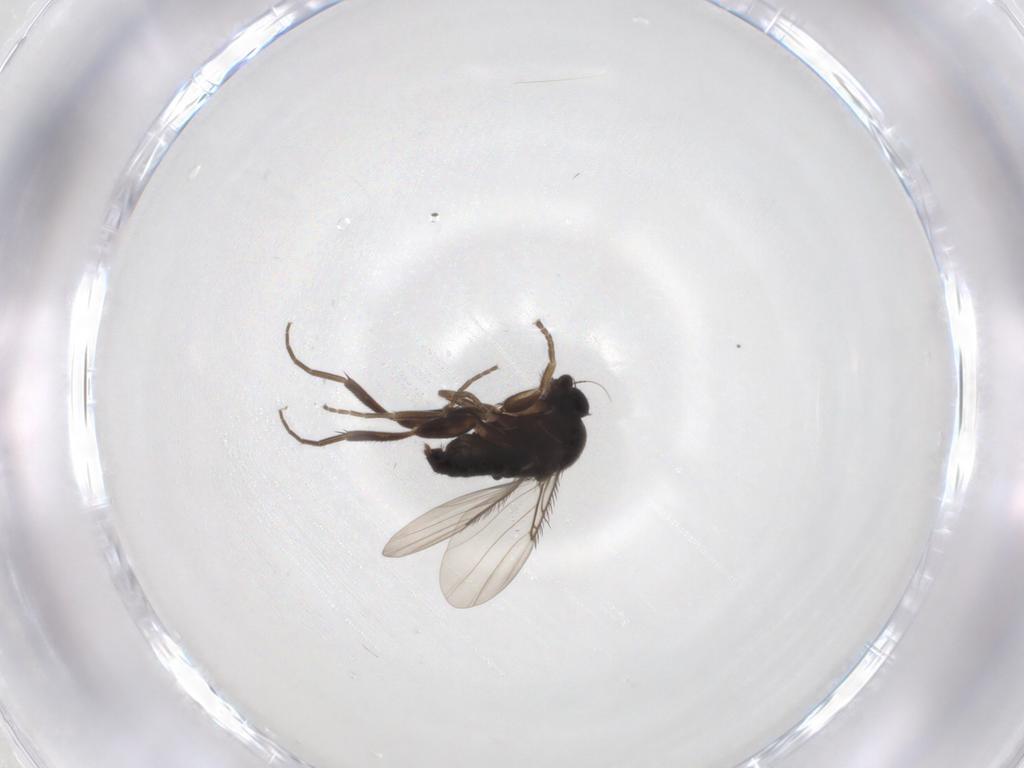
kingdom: Animalia
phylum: Arthropoda
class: Insecta
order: Diptera
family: Phoridae
